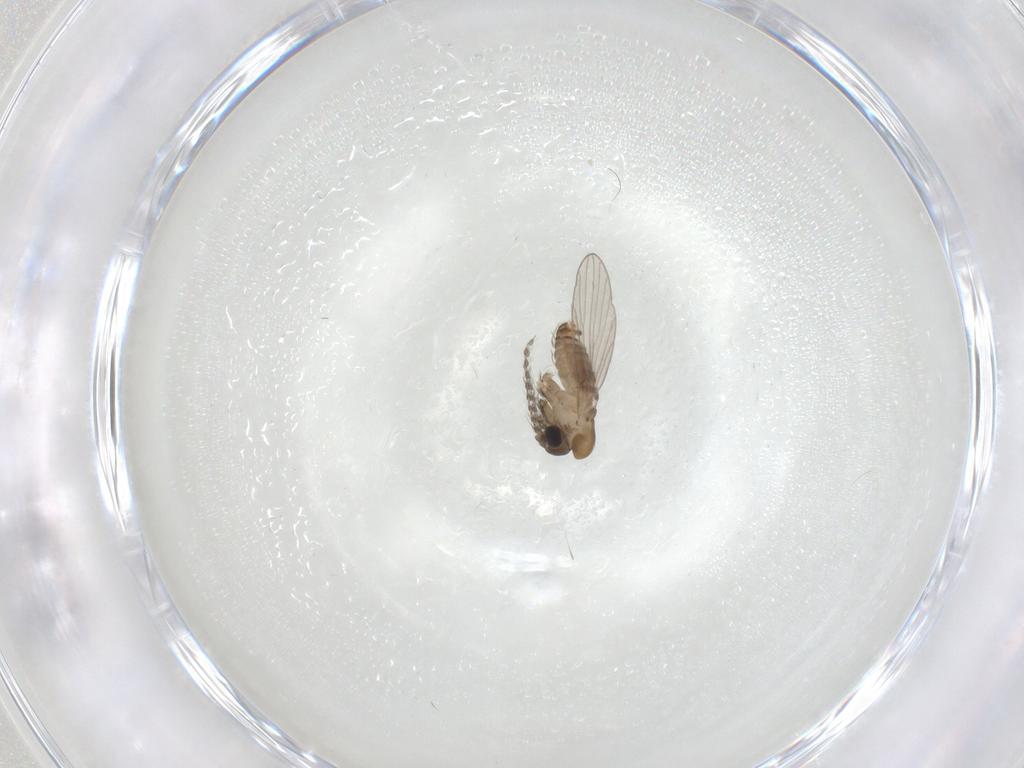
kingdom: Animalia
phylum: Arthropoda
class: Insecta
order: Diptera
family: Psychodidae
